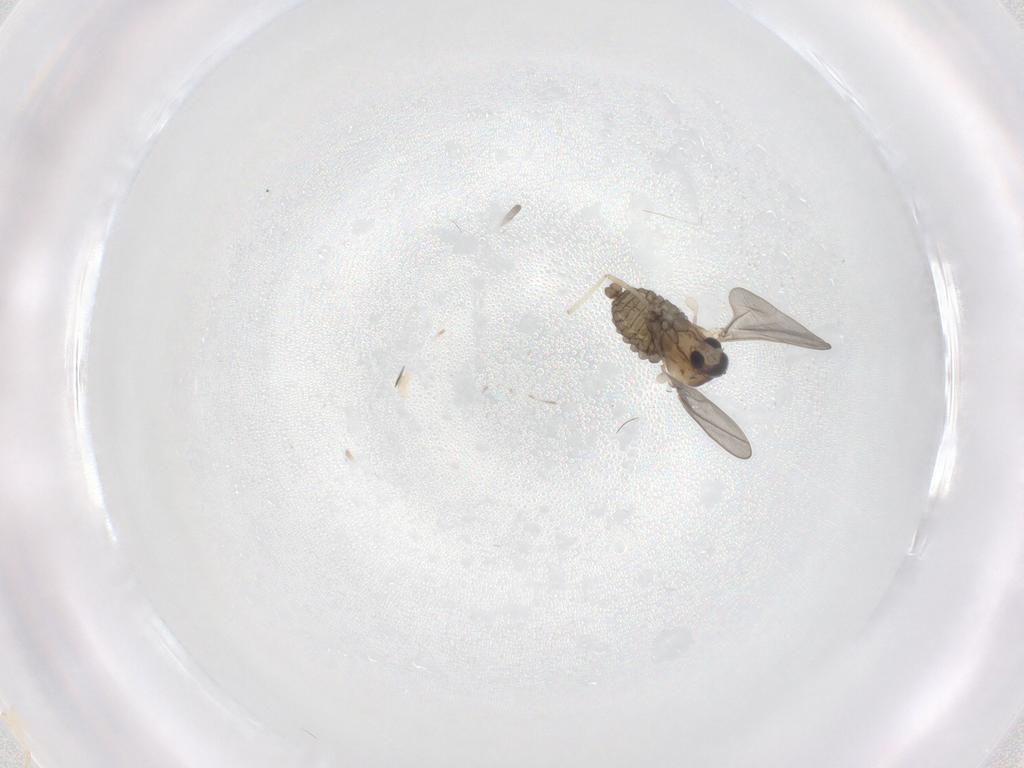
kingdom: Animalia
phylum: Arthropoda
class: Insecta
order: Diptera
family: Chironomidae
